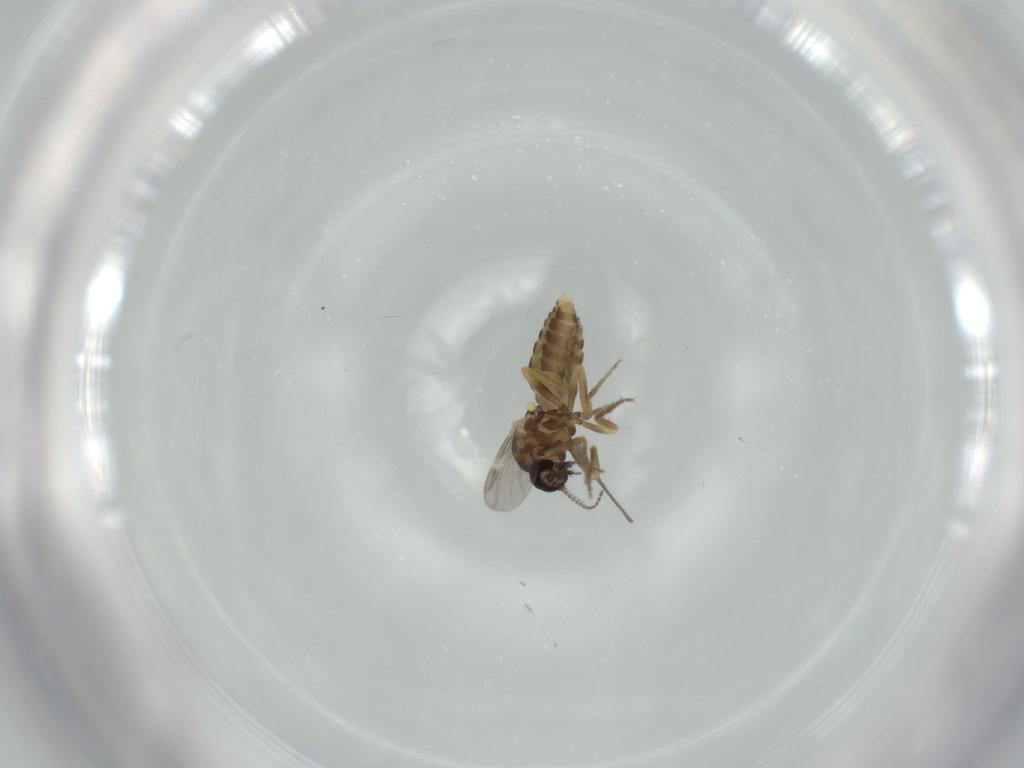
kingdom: Animalia
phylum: Arthropoda
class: Insecta
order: Diptera
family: Ceratopogonidae
